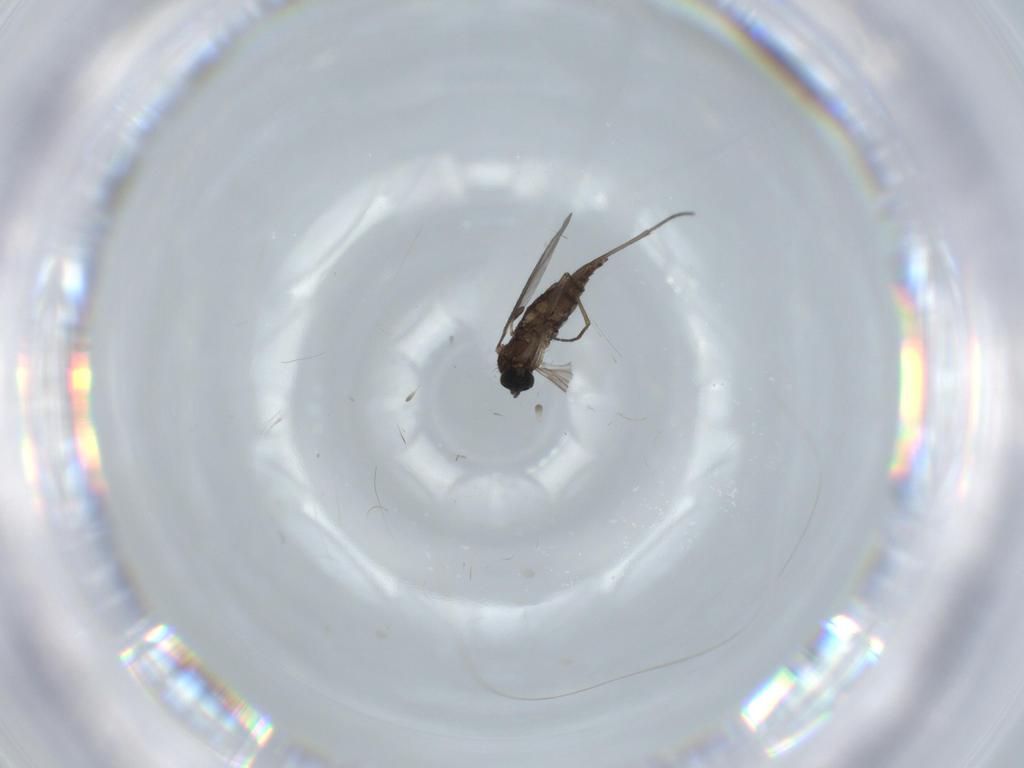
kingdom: Animalia
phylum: Arthropoda
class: Insecta
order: Diptera
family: Sciaridae
